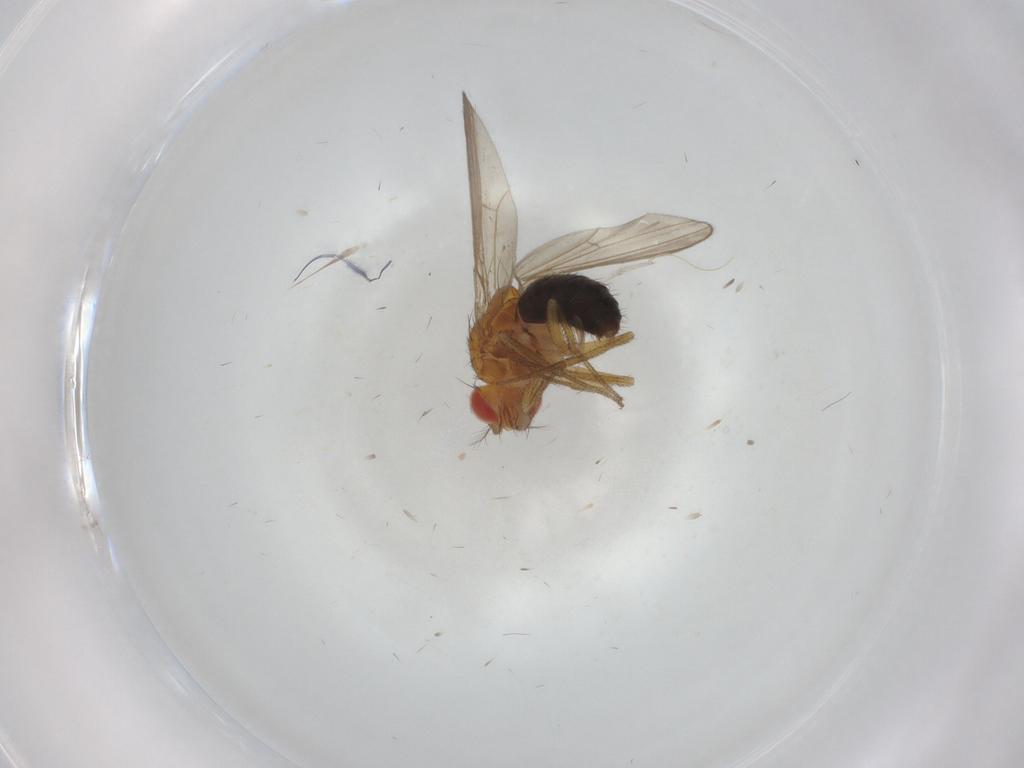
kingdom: Animalia
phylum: Arthropoda
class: Insecta
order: Diptera
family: Drosophilidae
